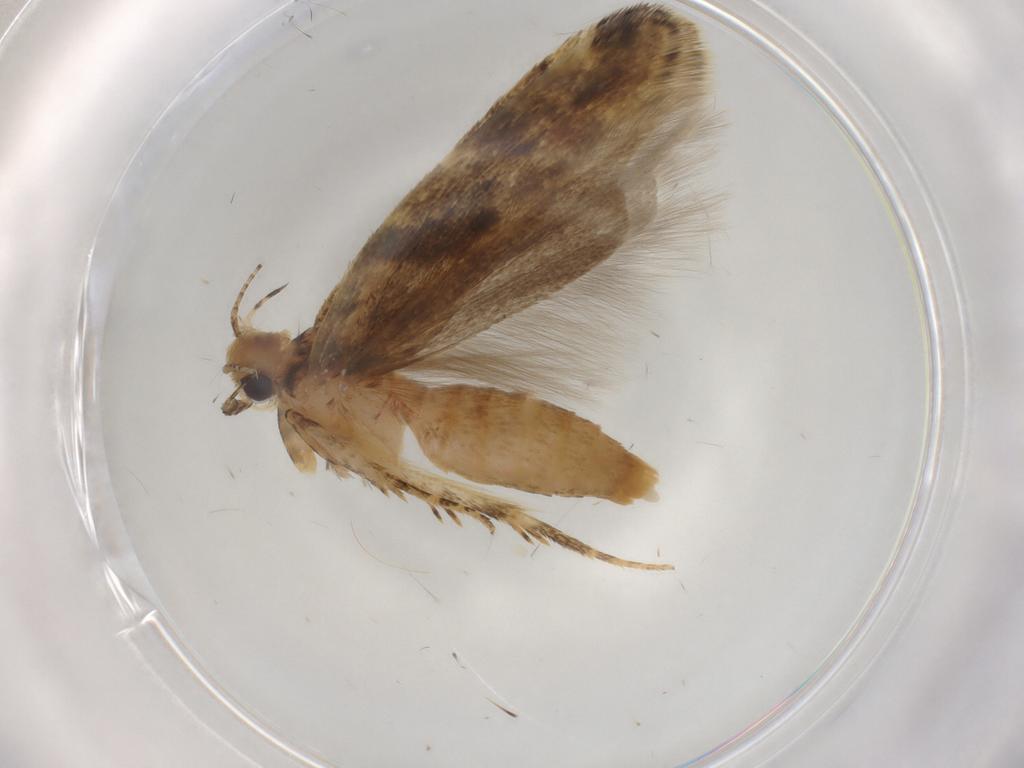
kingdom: Animalia
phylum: Arthropoda
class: Insecta
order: Lepidoptera
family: Gelechiidae
